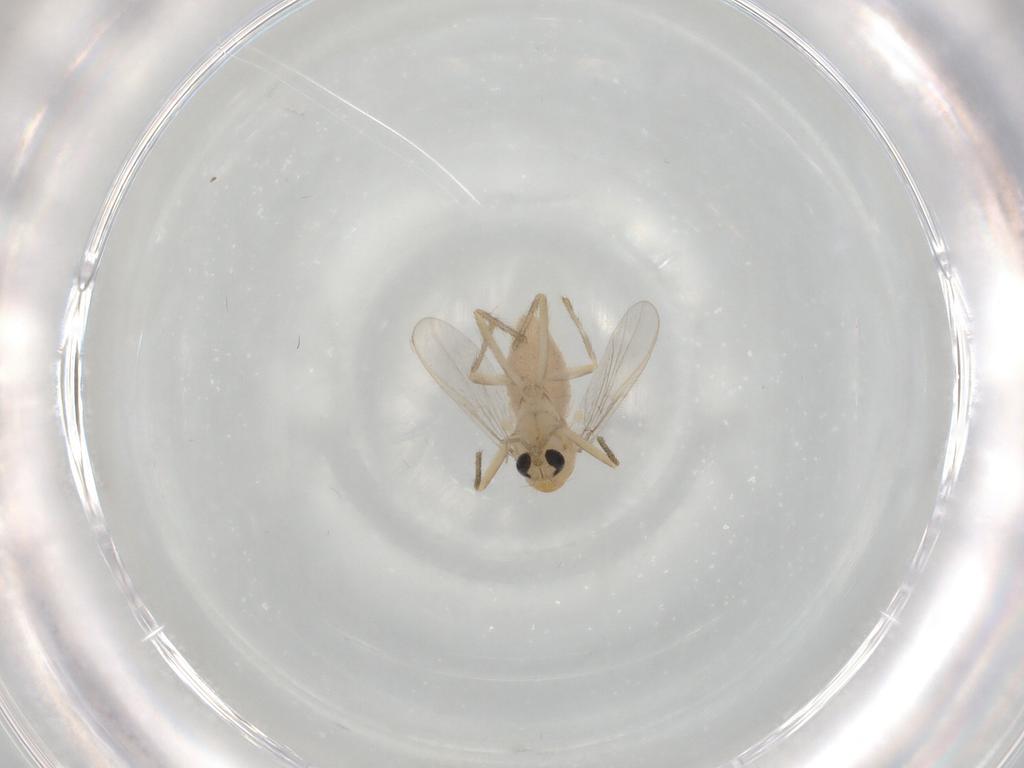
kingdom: Animalia
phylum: Arthropoda
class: Insecta
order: Diptera
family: Chironomidae
